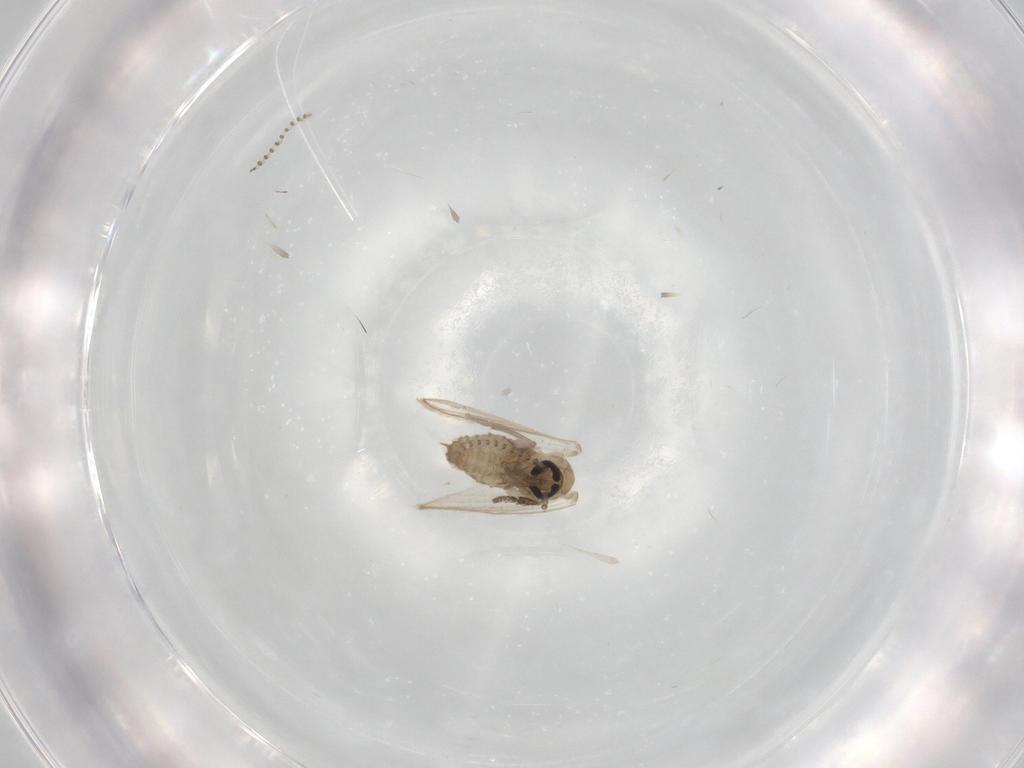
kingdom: Animalia
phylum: Arthropoda
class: Insecta
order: Diptera
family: Psychodidae
